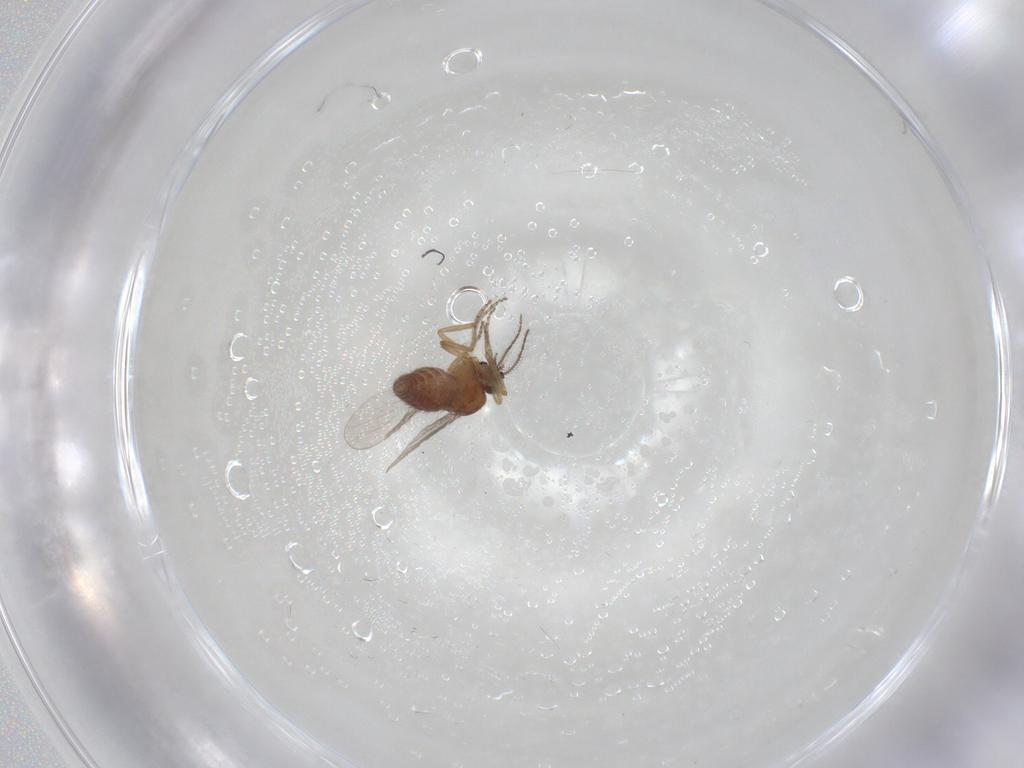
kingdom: Animalia
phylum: Arthropoda
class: Insecta
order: Diptera
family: Ceratopogonidae
